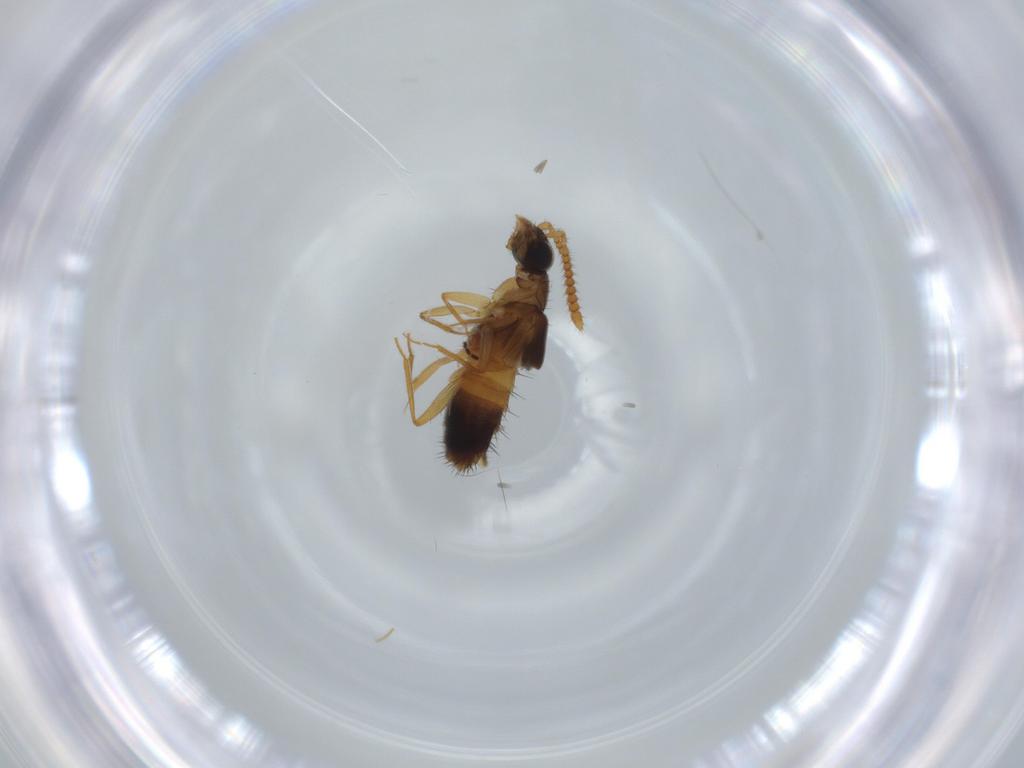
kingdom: Animalia
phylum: Arthropoda
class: Insecta
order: Coleoptera
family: Staphylinidae
